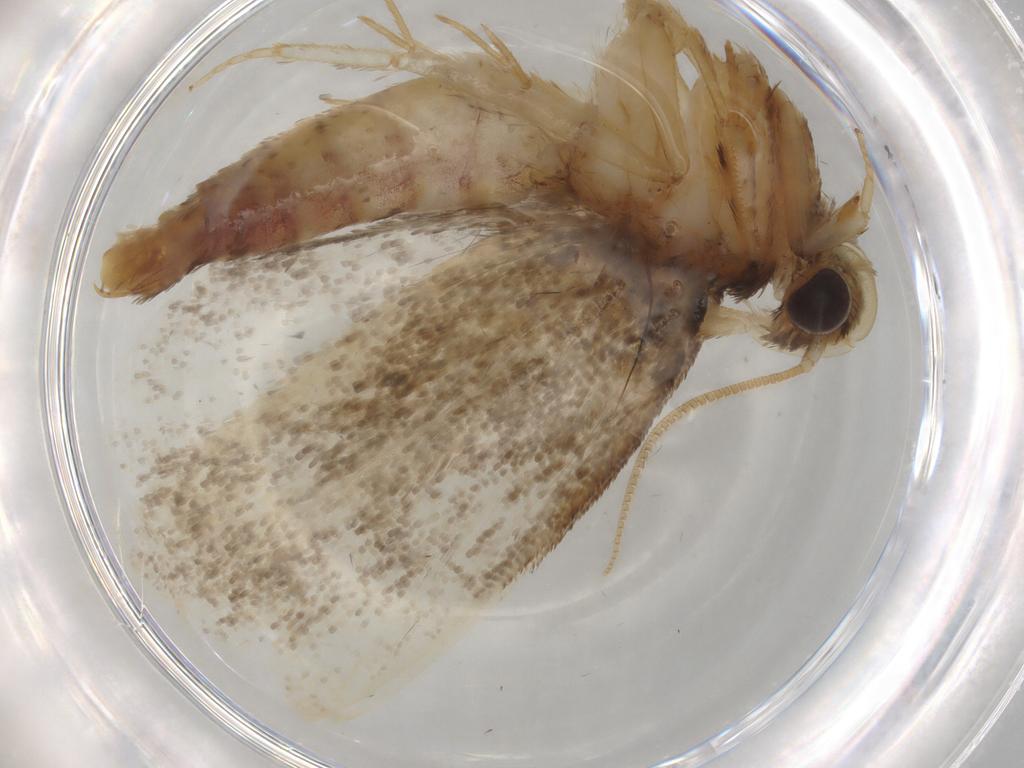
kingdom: Animalia
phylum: Arthropoda
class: Insecta
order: Lepidoptera
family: Tineidae
